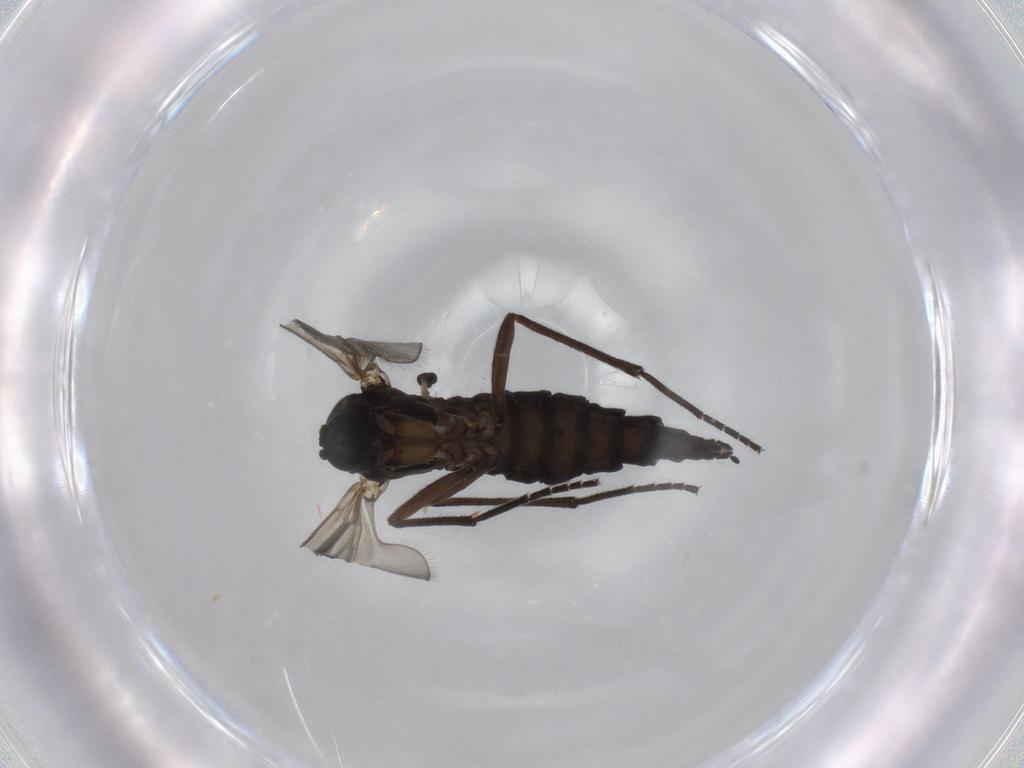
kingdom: Animalia
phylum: Arthropoda
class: Insecta
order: Diptera
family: Sciaridae
